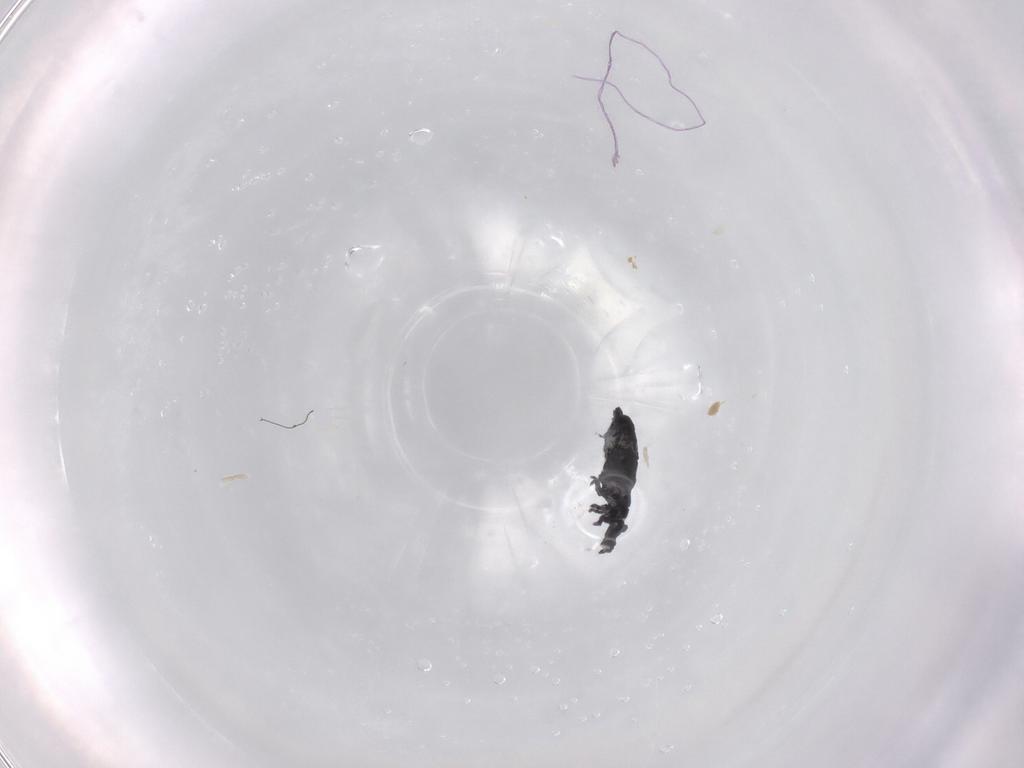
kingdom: Animalia
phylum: Arthropoda
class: Collembola
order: Poduromorpha
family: Hypogastruridae
